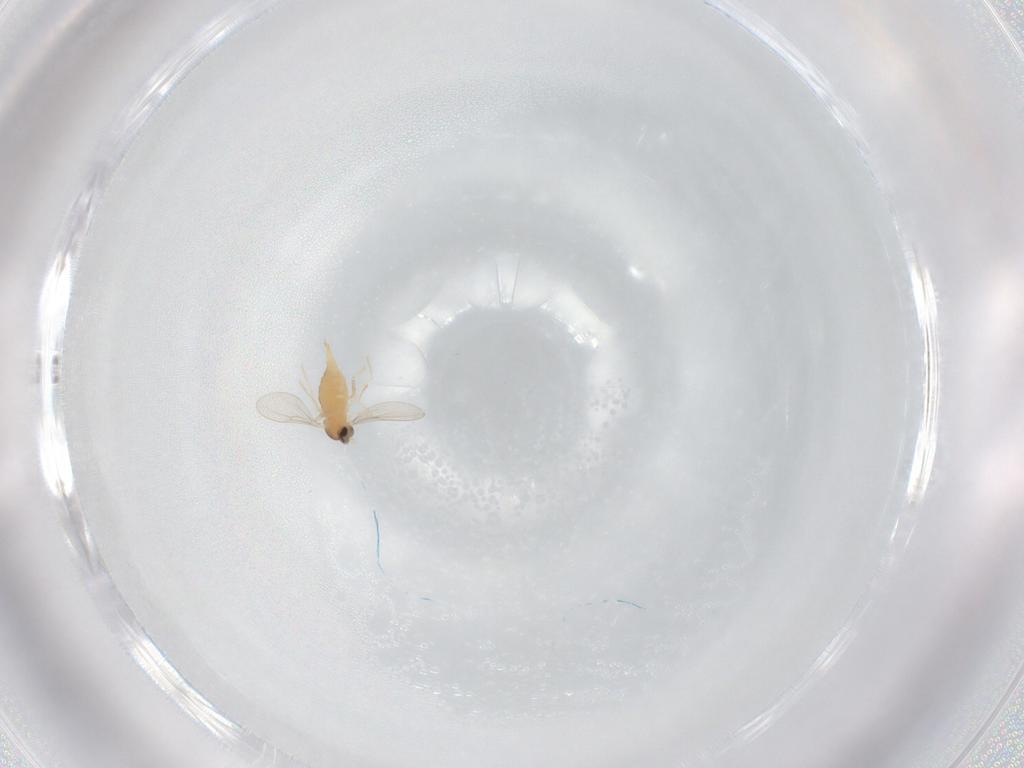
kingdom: Animalia
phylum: Arthropoda
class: Insecta
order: Diptera
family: Cecidomyiidae
